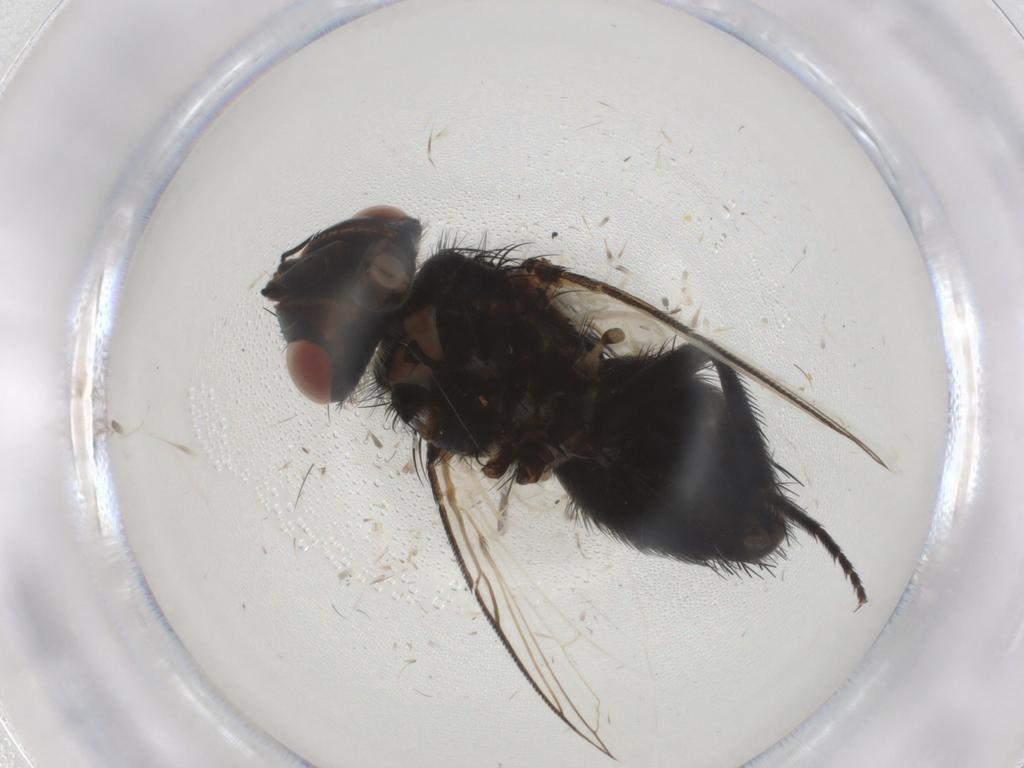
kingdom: Animalia
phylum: Arthropoda
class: Insecta
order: Diptera
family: Tachinidae
